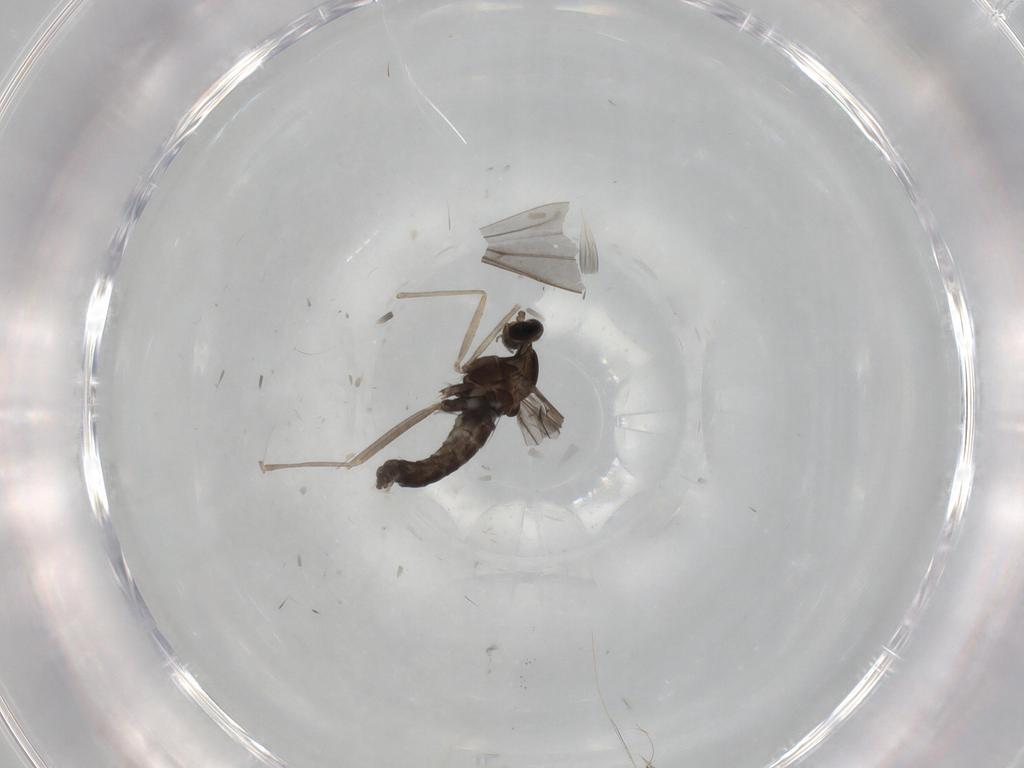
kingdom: Animalia
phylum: Arthropoda
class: Insecta
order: Diptera
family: Cecidomyiidae
